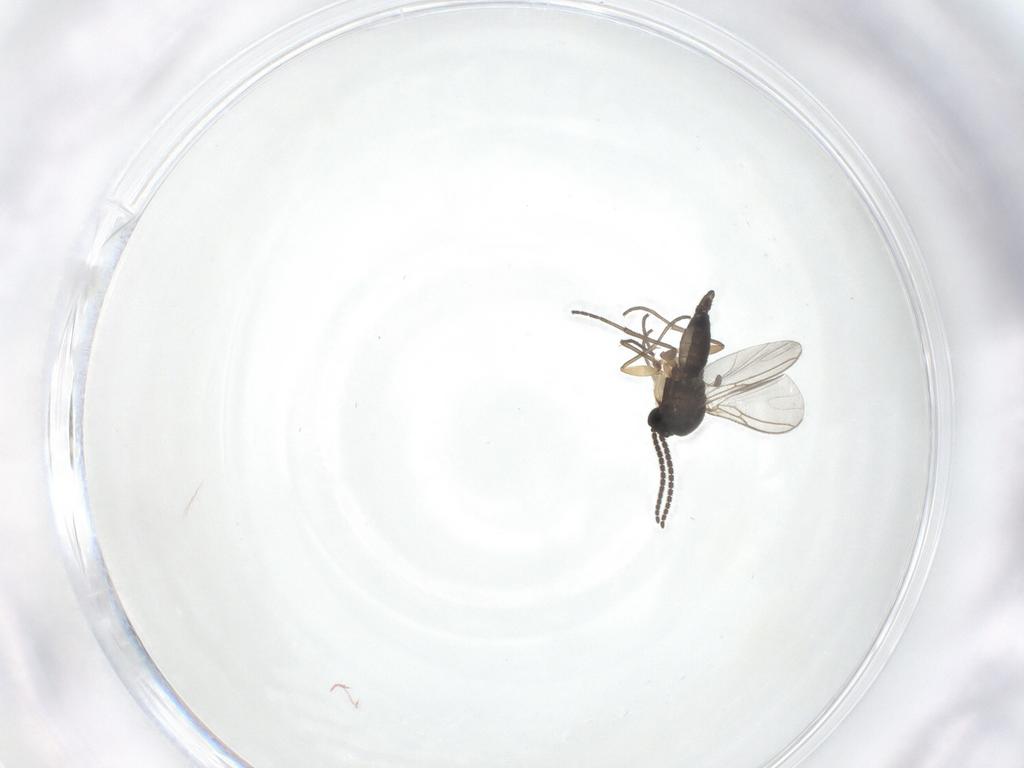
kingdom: Animalia
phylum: Arthropoda
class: Insecta
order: Diptera
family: Sciaridae
